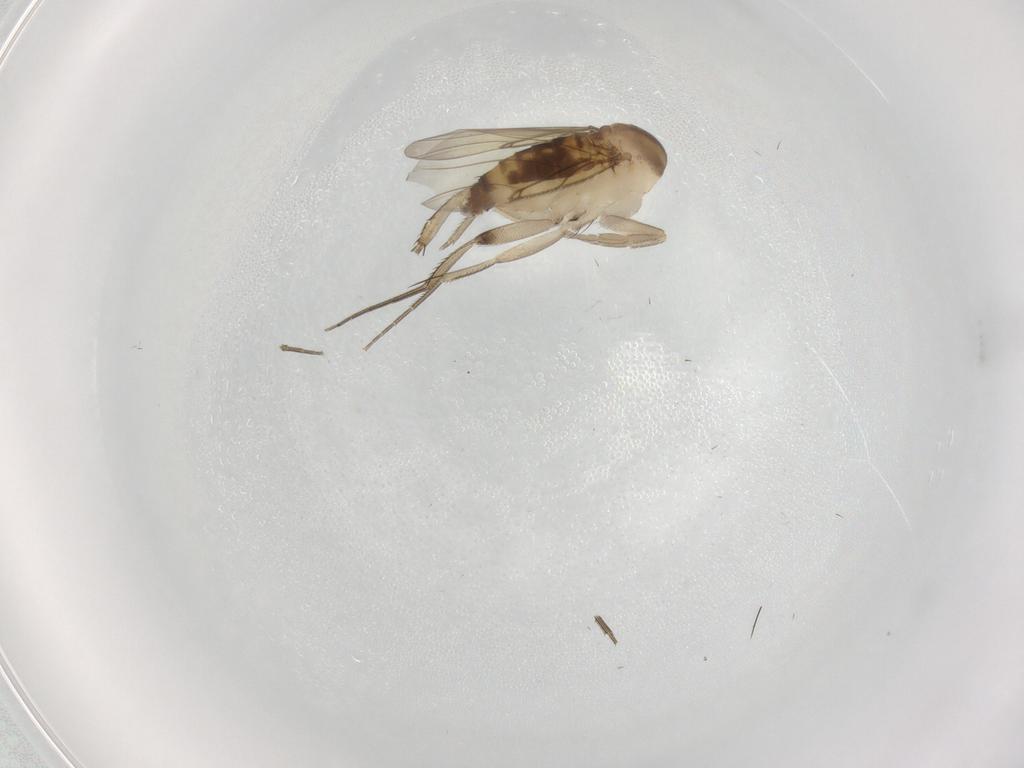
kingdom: Animalia
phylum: Arthropoda
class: Insecta
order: Diptera
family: Phoridae
